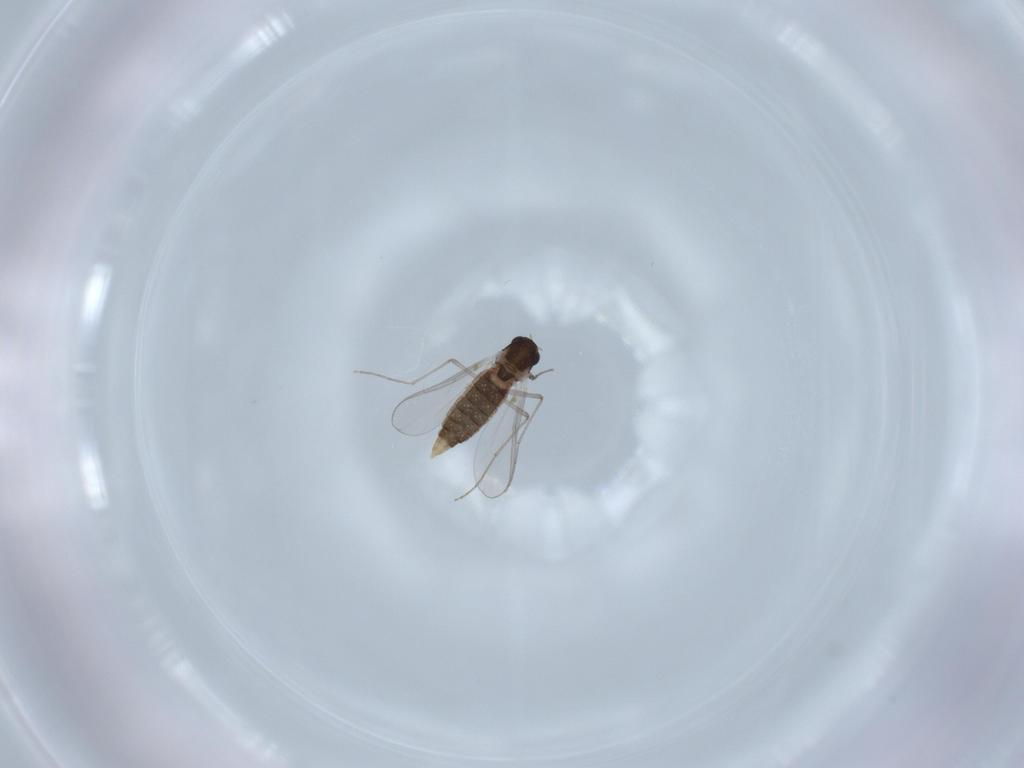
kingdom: Animalia
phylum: Arthropoda
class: Insecta
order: Diptera
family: Chironomidae
